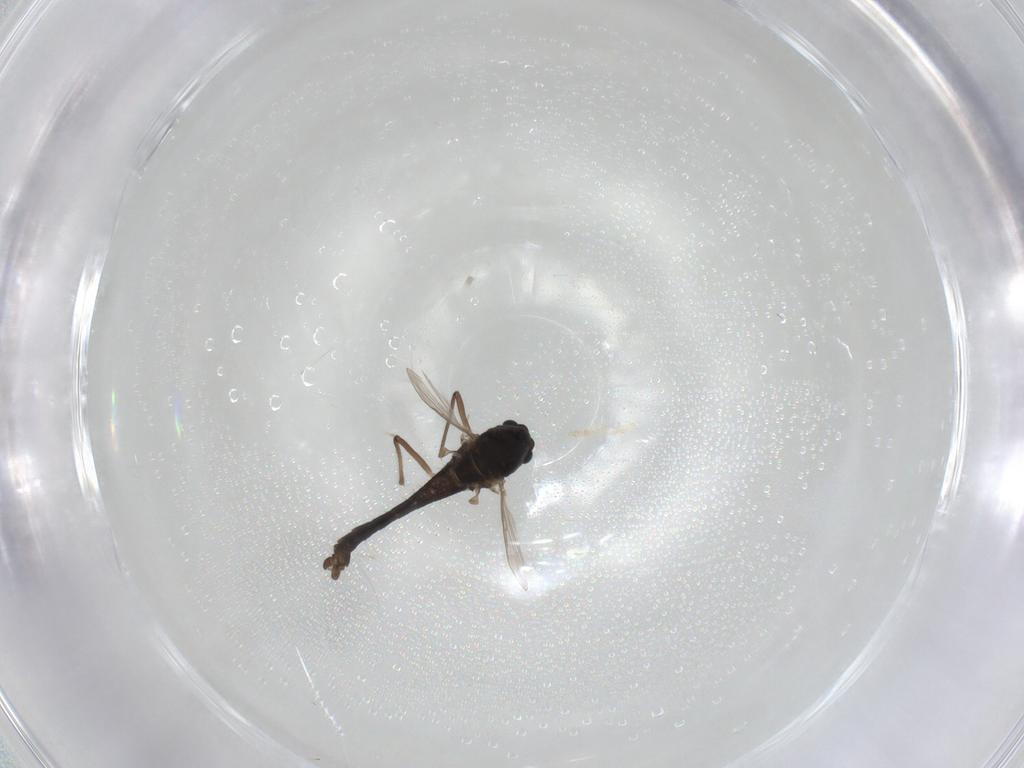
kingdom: Animalia
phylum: Arthropoda
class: Insecta
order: Diptera
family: Chironomidae
